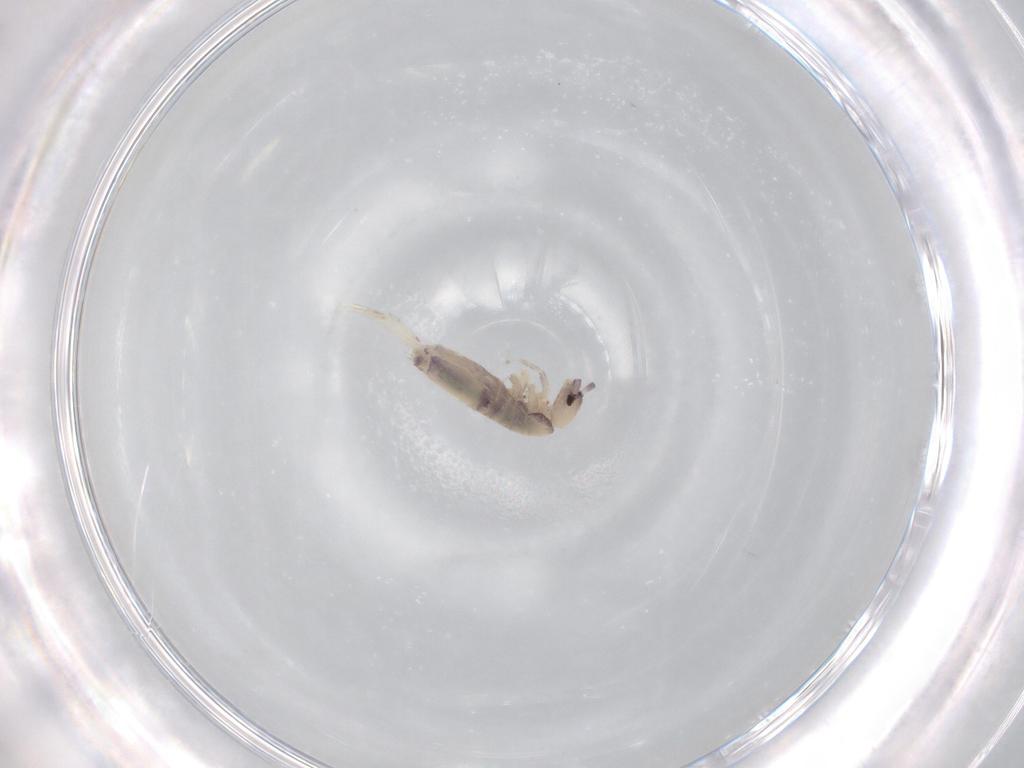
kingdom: Animalia
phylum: Arthropoda
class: Collembola
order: Poduromorpha
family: Hypogastruridae
